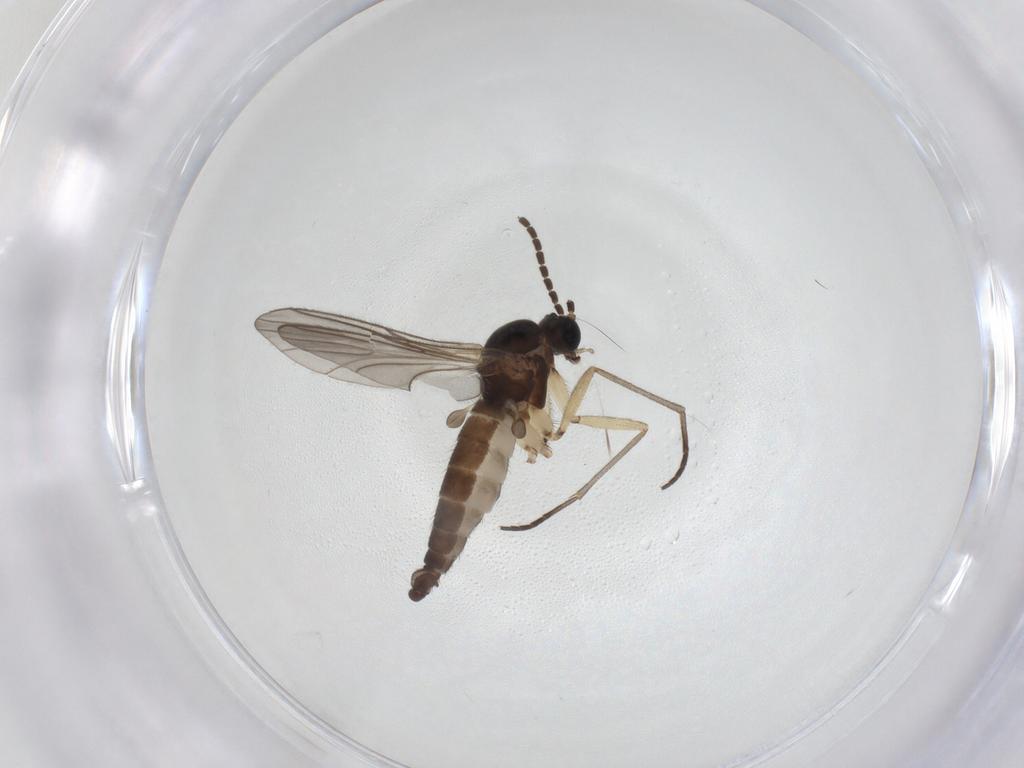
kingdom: Animalia
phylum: Arthropoda
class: Insecta
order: Diptera
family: Sciaridae
